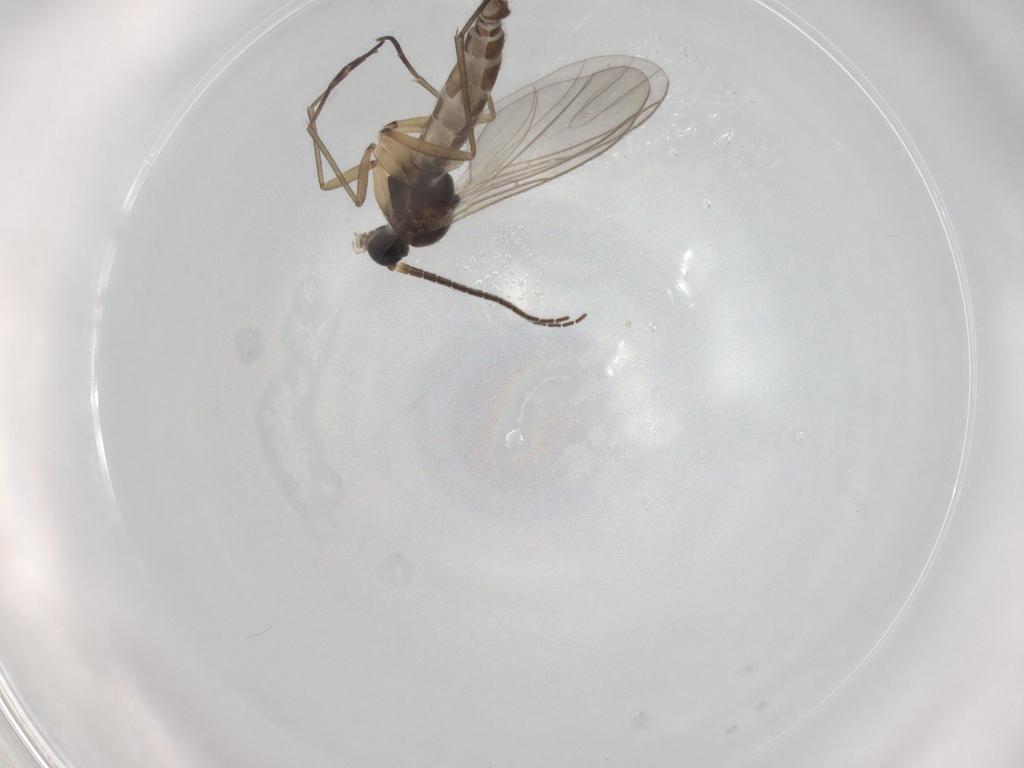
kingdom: Animalia
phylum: Arthropoda
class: Insecta
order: Diptera
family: Sciaridae
